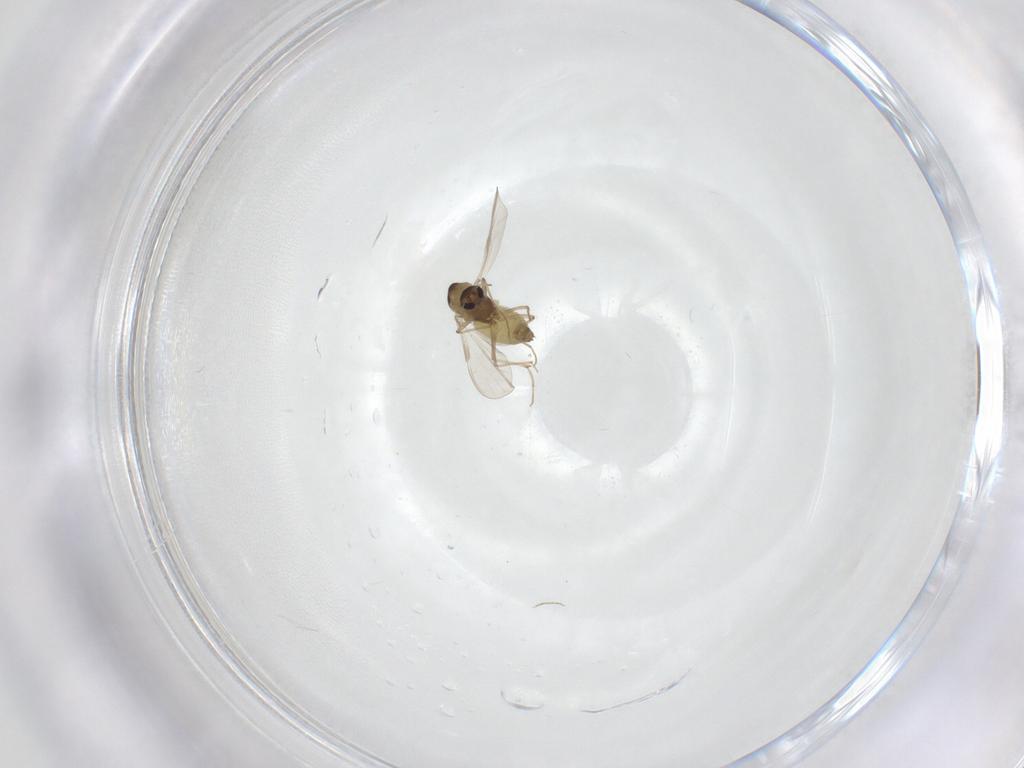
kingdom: Animalia
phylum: Arthropoda
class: Insecta
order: Diptera
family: Chironomidae
